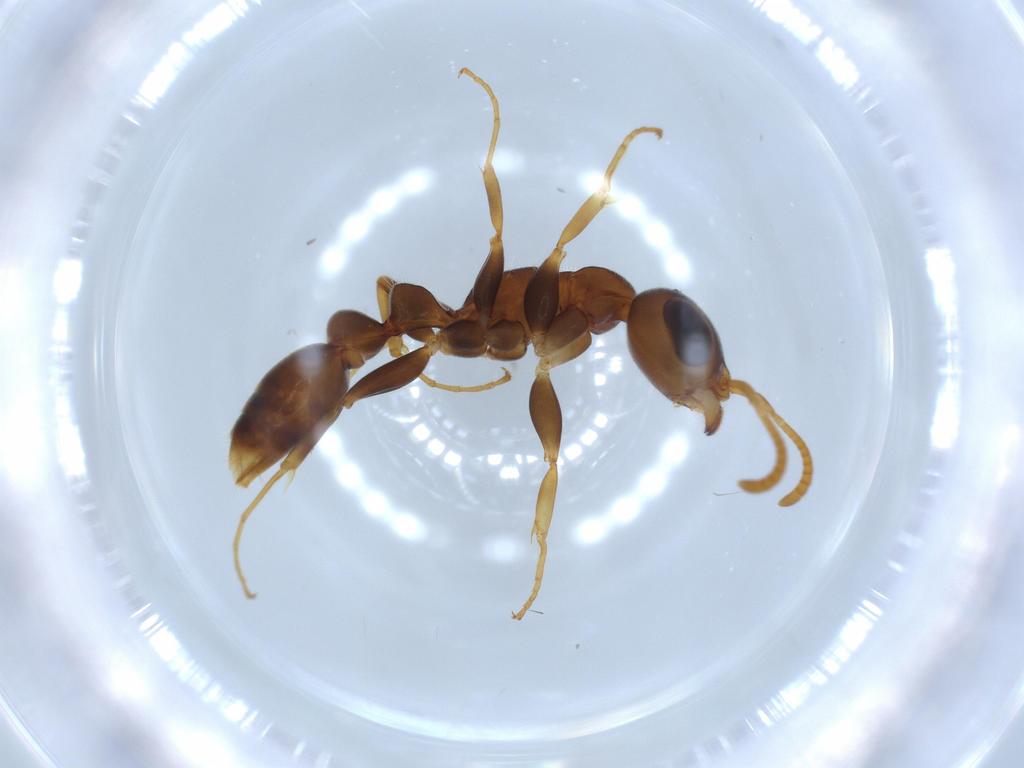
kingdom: Animalia
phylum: Arthropoda
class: Insecta
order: Hymenoptera
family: Formicidae
